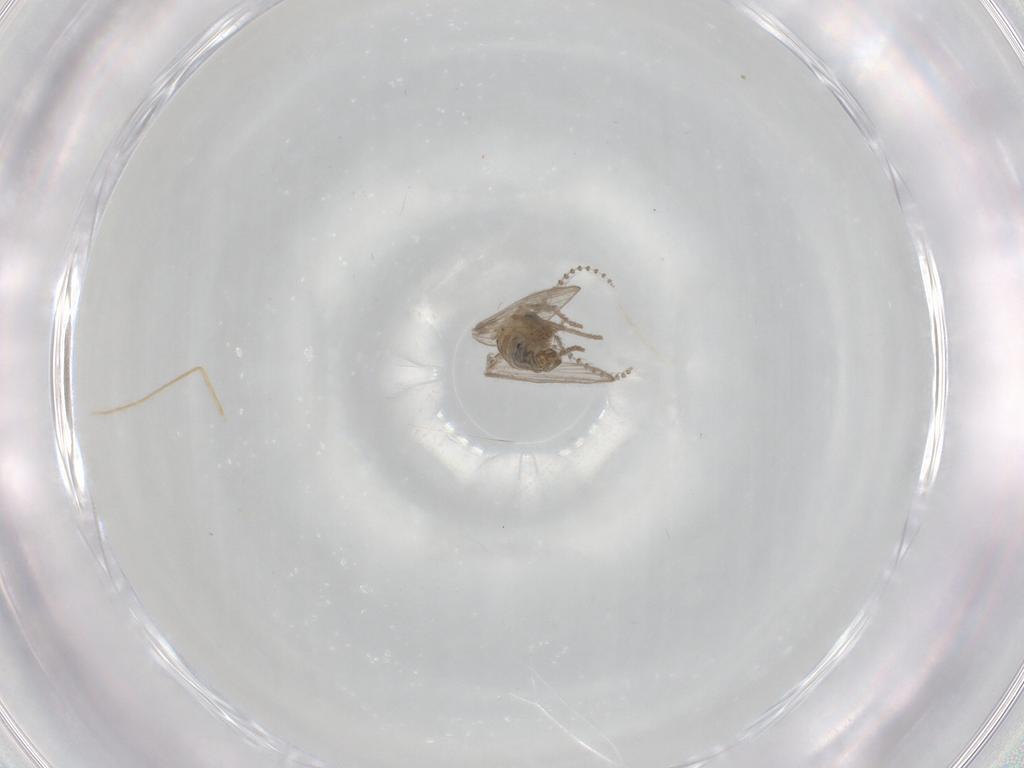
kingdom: Animalia
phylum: Arthropoda
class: Insecta
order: Diptera
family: Psychodidae
